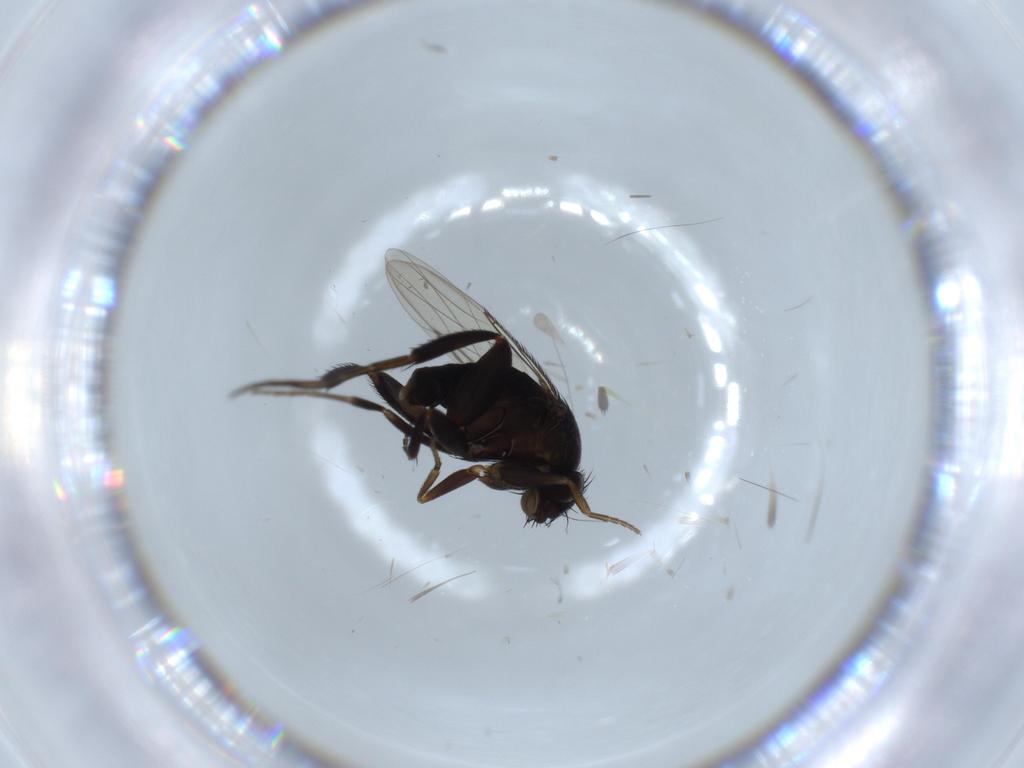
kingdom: Animalia
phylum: Arthropoda
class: Insecta
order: Diptera
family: Phoridae
